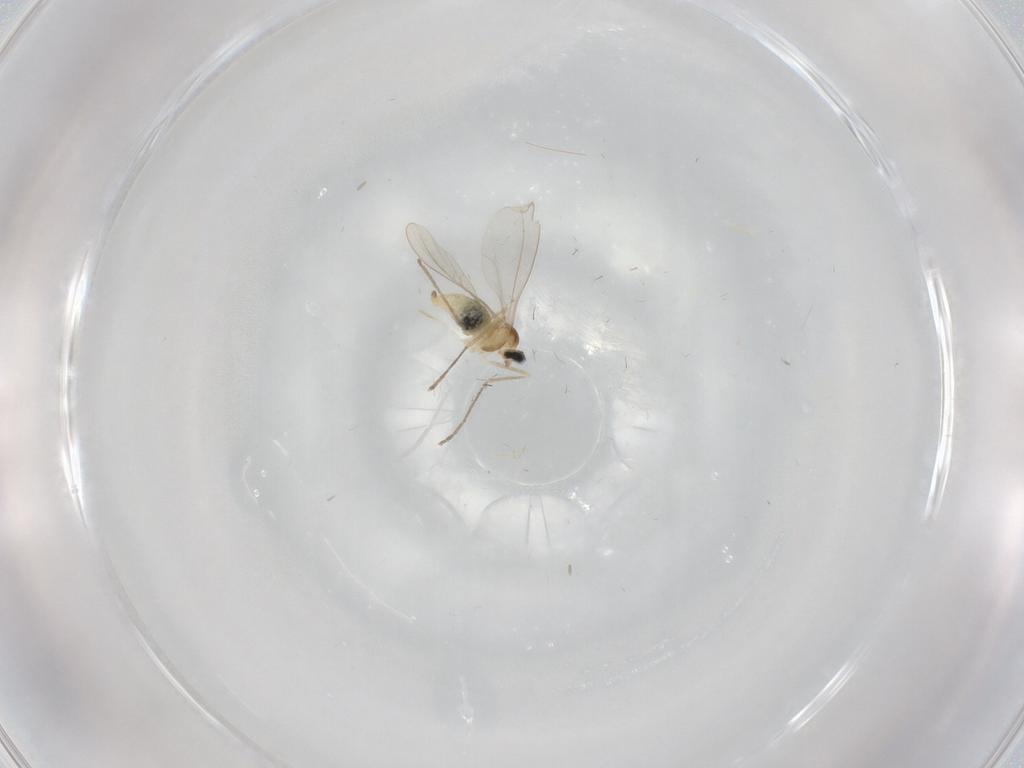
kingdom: Animalia
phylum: Arthropoda
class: Insecta
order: Diptera
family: Cecidomyiidae
